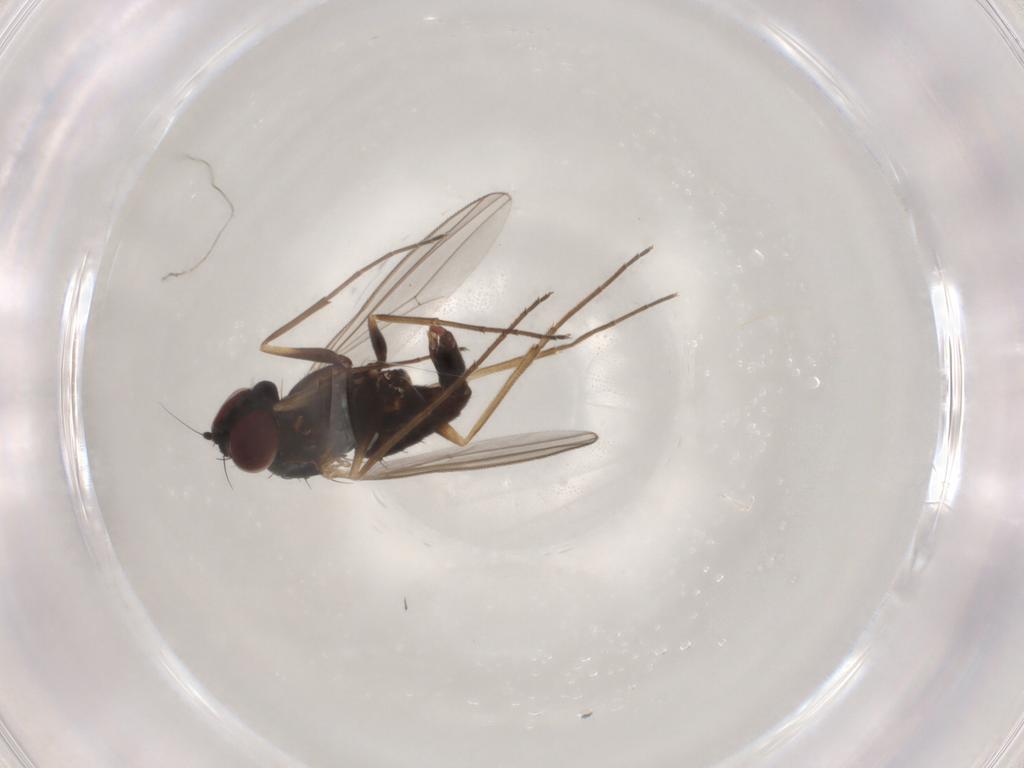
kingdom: Animalia
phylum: Arthropoda
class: Insecta
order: Diptera
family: Dolichopodidae
